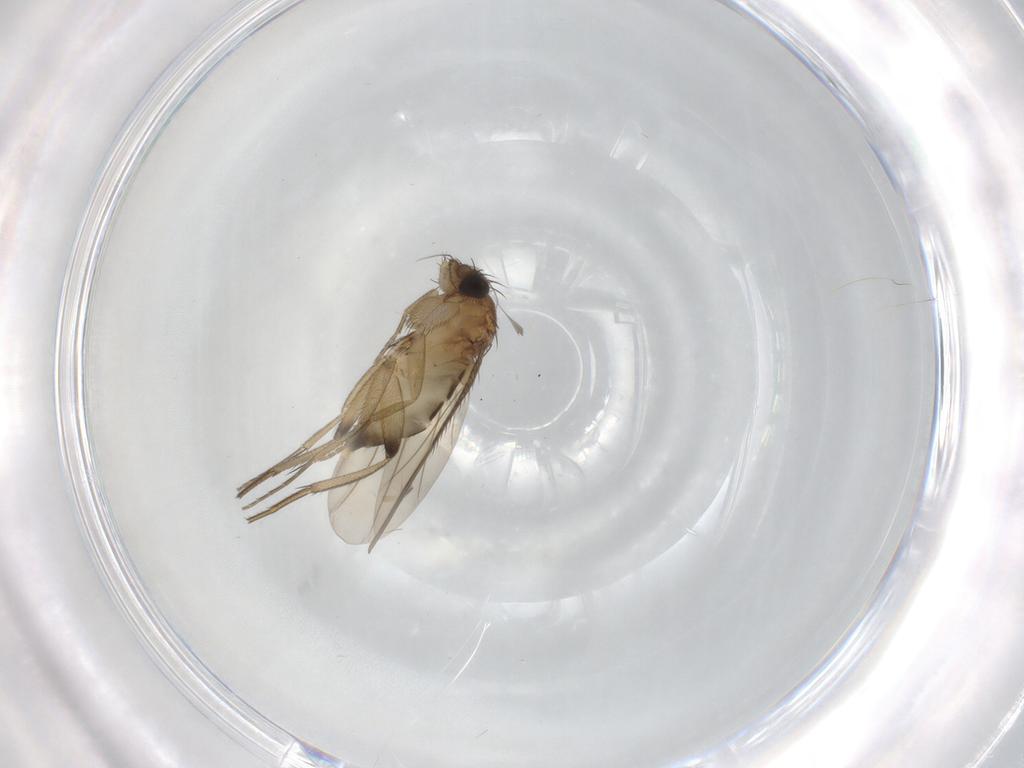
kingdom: Animalia
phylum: Arthropoda
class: Insecta
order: Diptera
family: Phoridae
